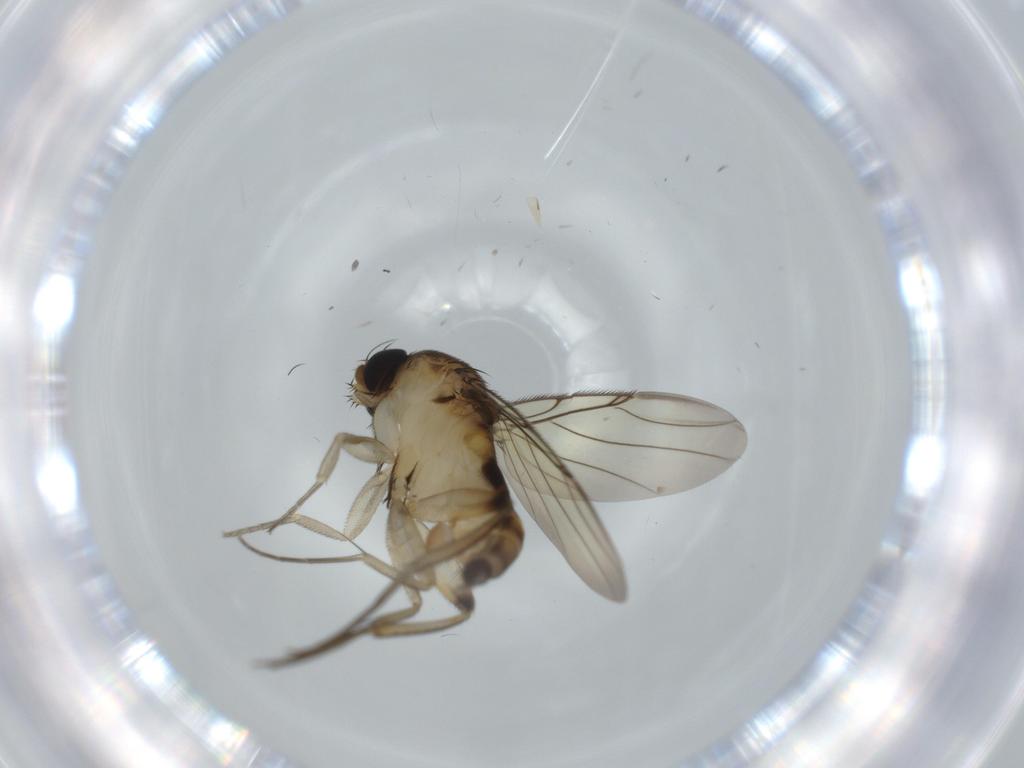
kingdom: Animalia
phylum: Arthropoda
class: Insecta
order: Diptera
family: Phoridae
